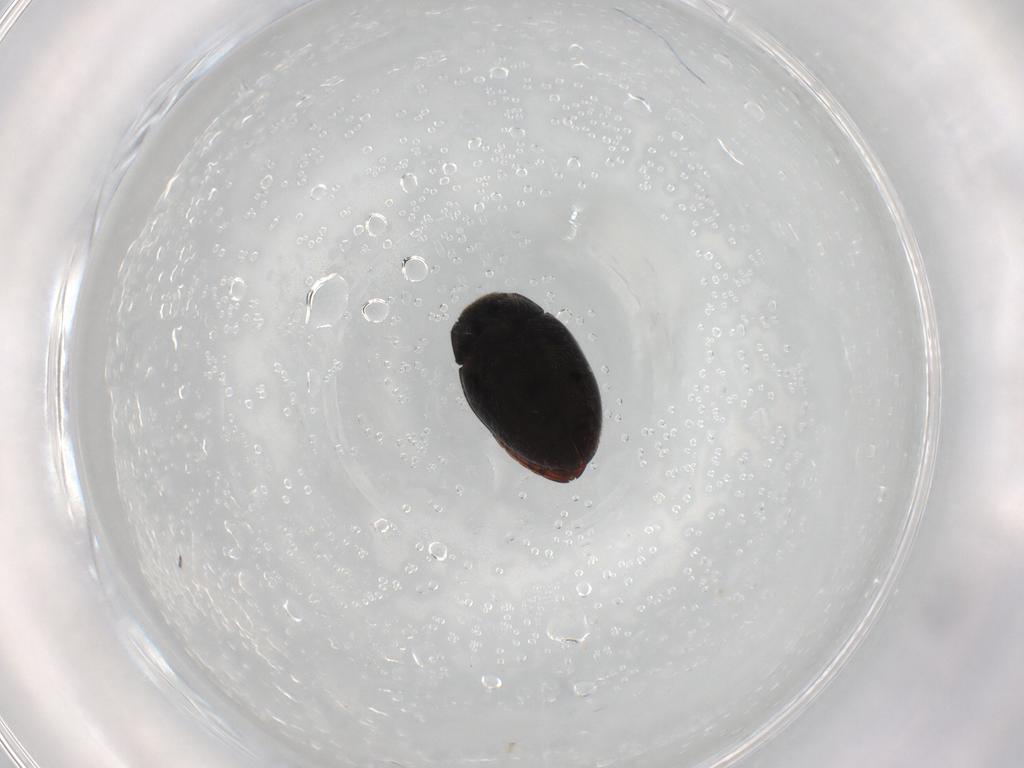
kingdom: Animalia
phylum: Arthropoda
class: Insecta
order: Coleoptera
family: Limnichidae
